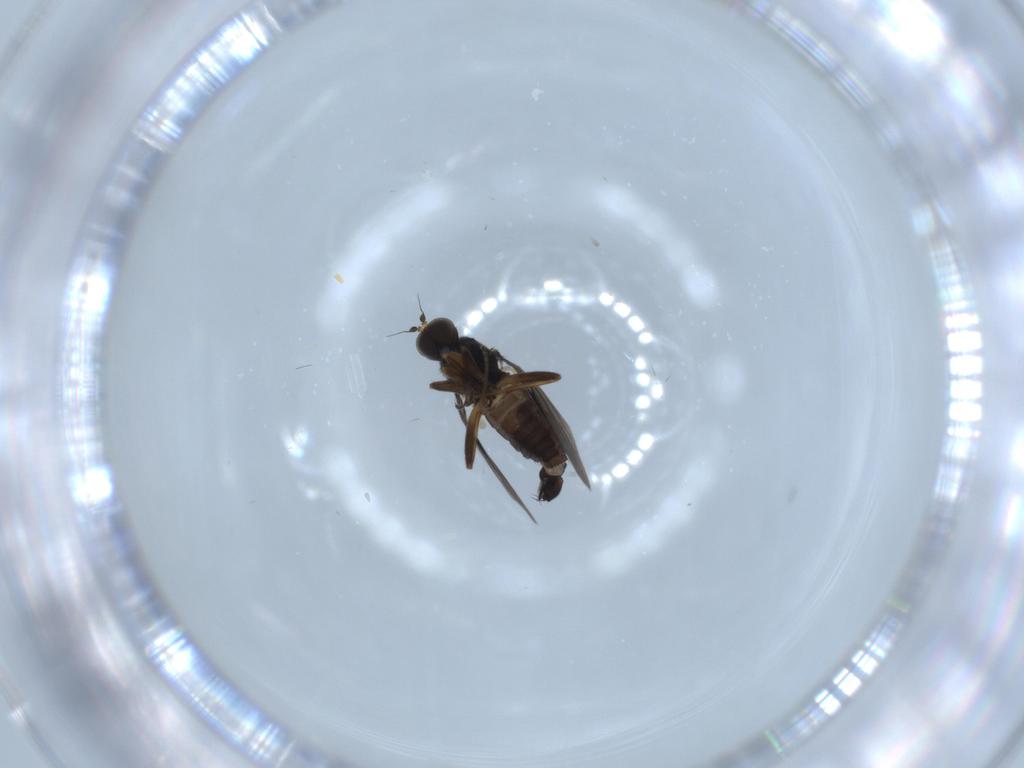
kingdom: Animalia
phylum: Arthropoda
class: Insecta
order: Diptera
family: Hybotidae
